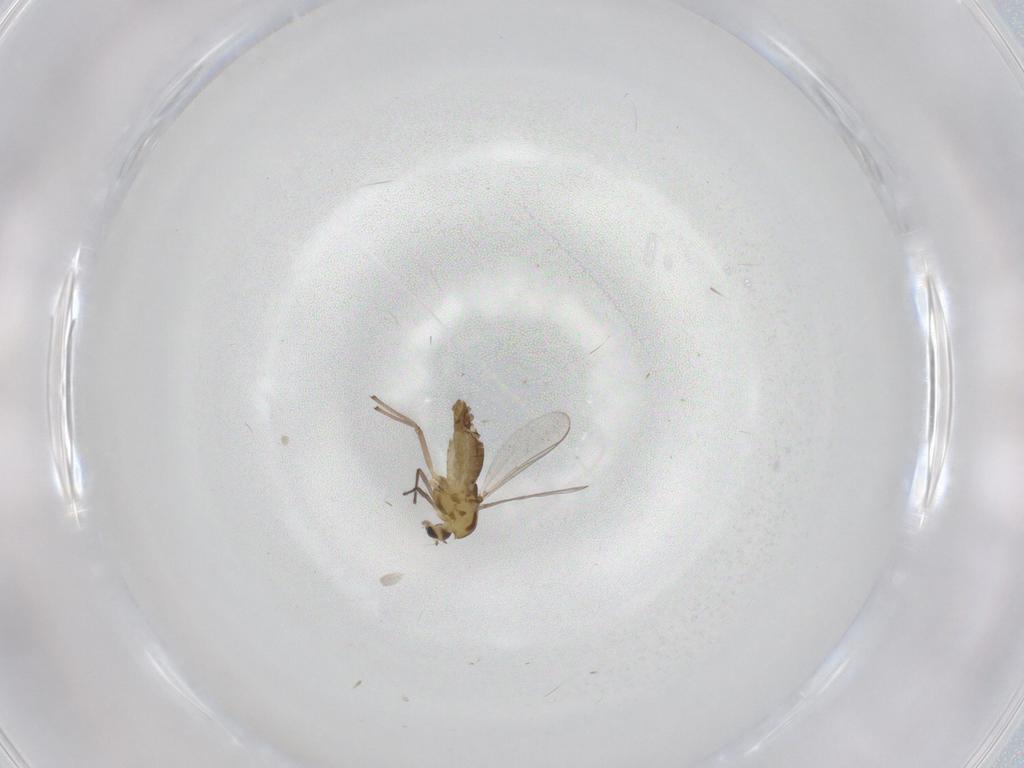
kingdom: Animalia
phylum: Arthropoda
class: Insecta
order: Diptera
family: Chironomidae
